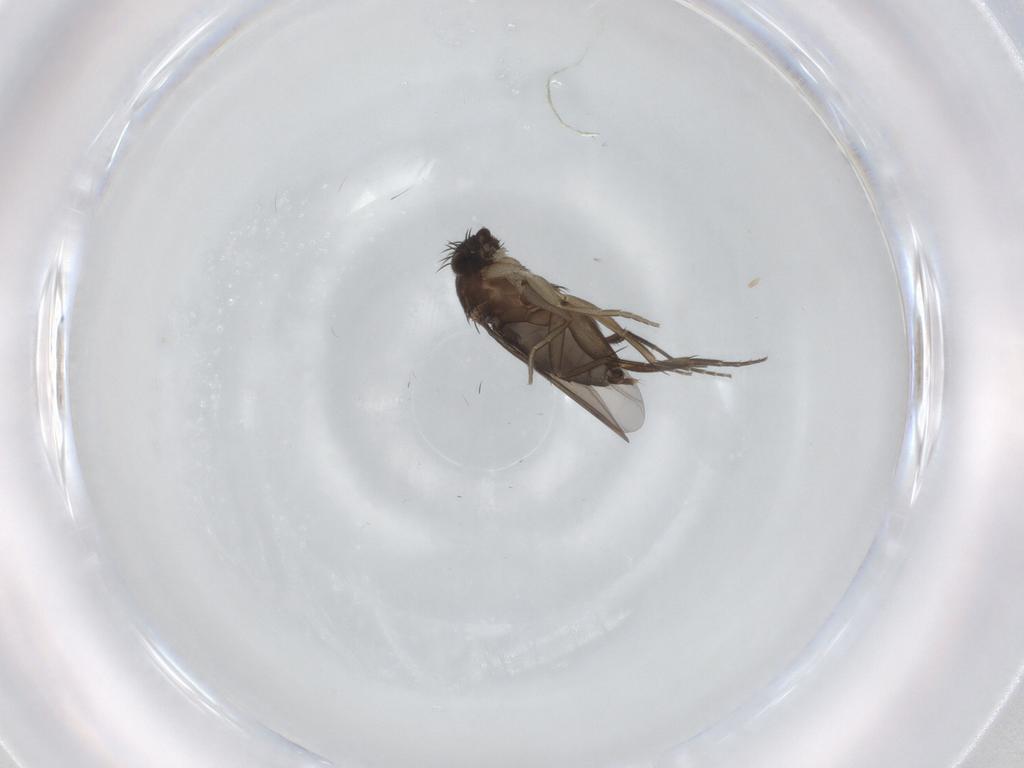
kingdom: Animalia
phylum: Arthropoda
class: Insecta
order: Diptera
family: Phoridae
